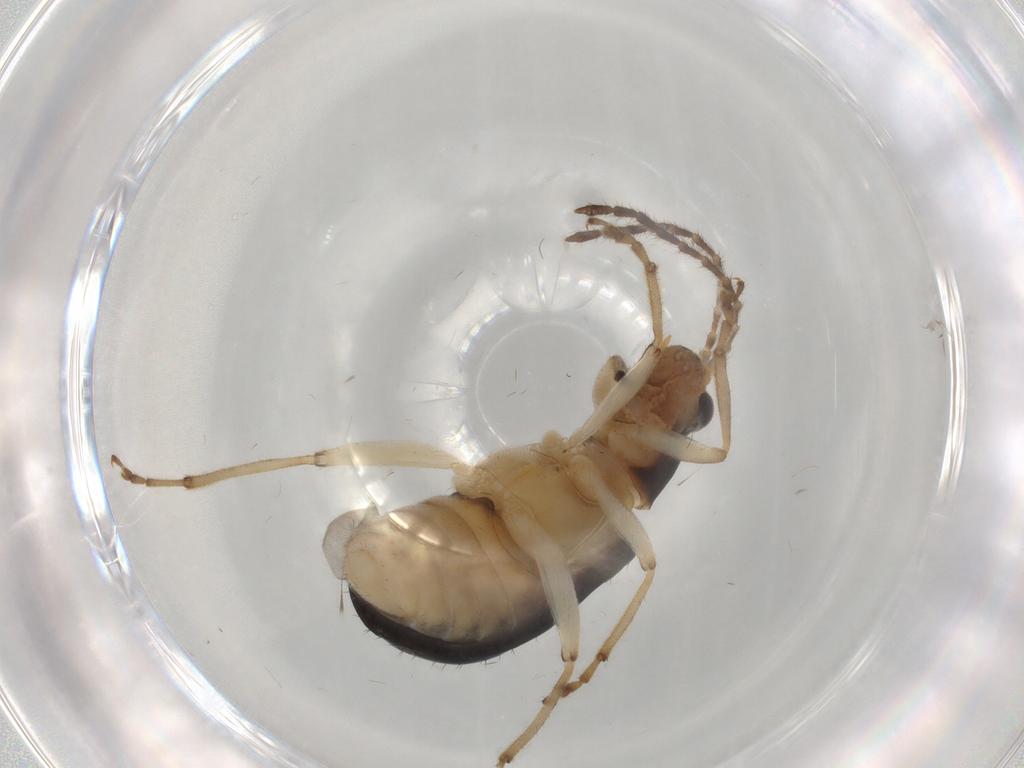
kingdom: Animalia
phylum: Arthropoda
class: Insecta
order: Coleoptera
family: Chrysomelidae
